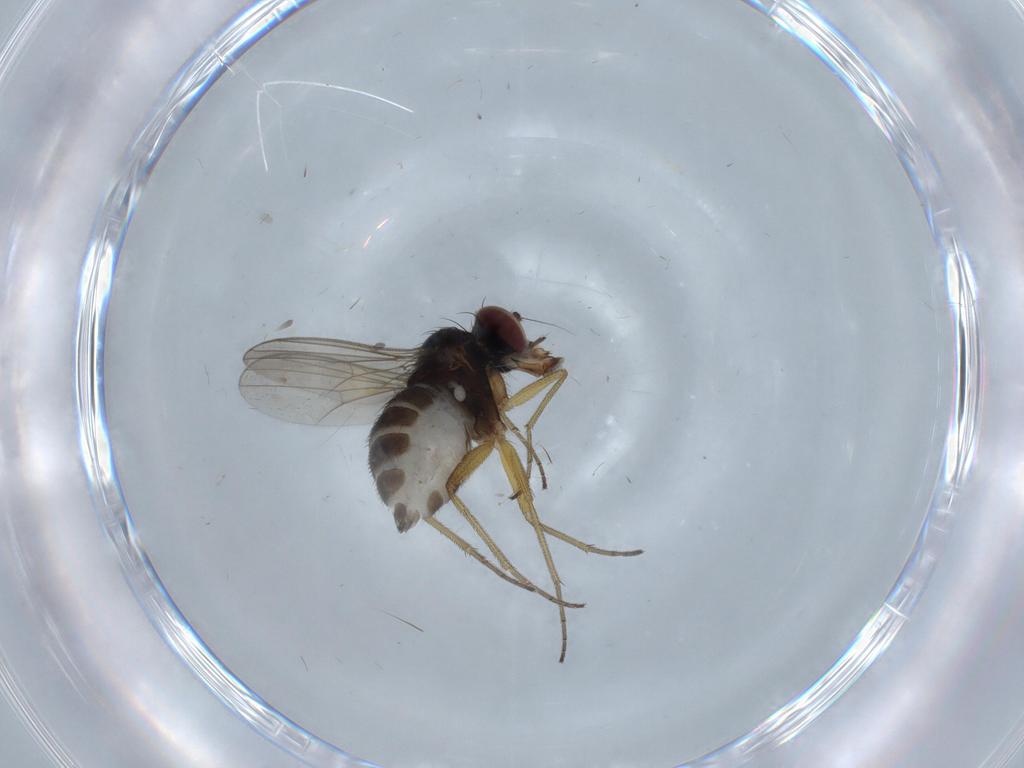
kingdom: Animalia
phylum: Arthropoda
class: Insecta
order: Diptera
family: Dolichopodidae
